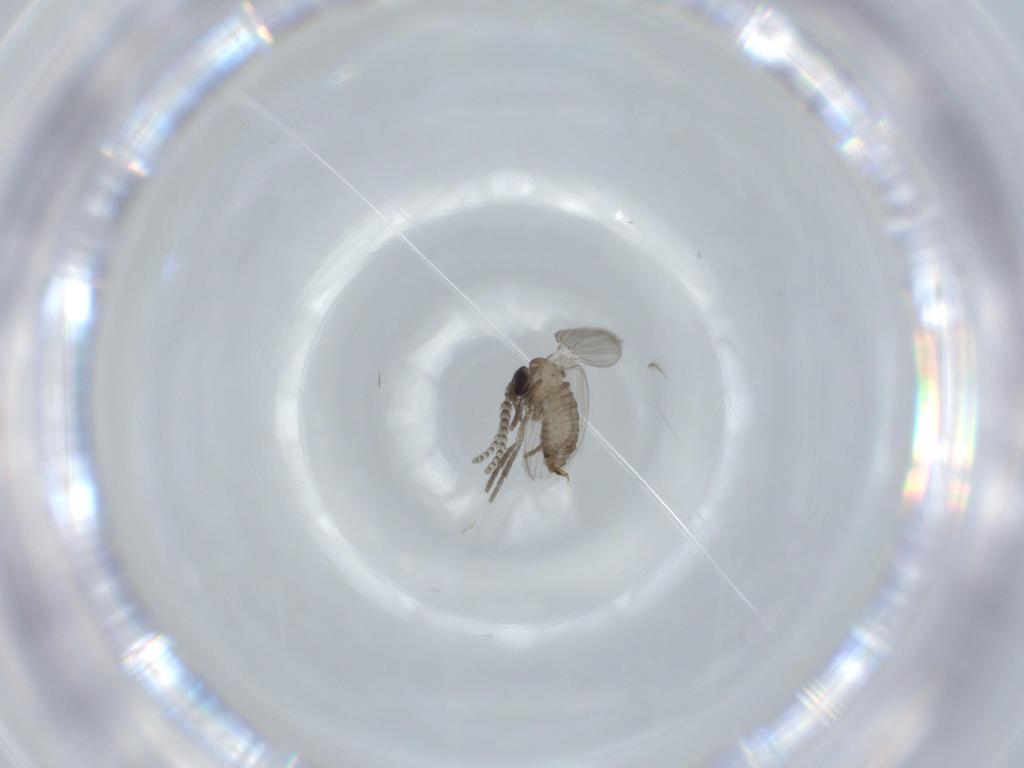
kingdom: Animalia
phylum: Arthropoda
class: Insecta
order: Diptera
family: Psychodidae
